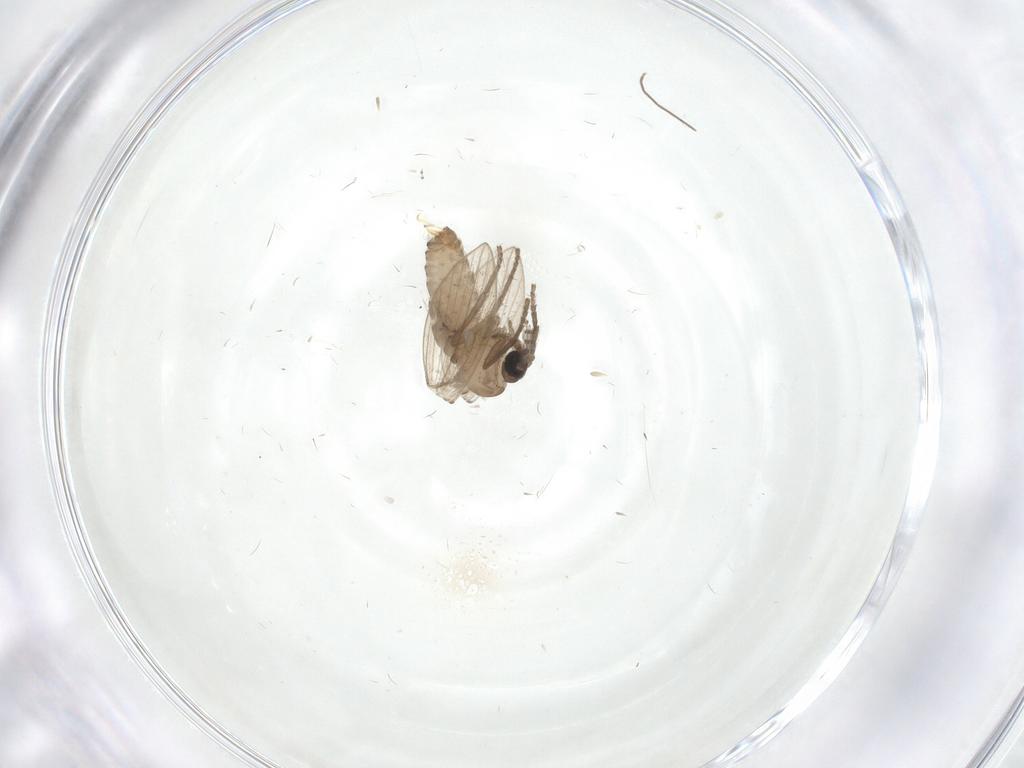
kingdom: Animalia
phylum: Arthropoda
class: Insecta
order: Diptera
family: Psychodidae
